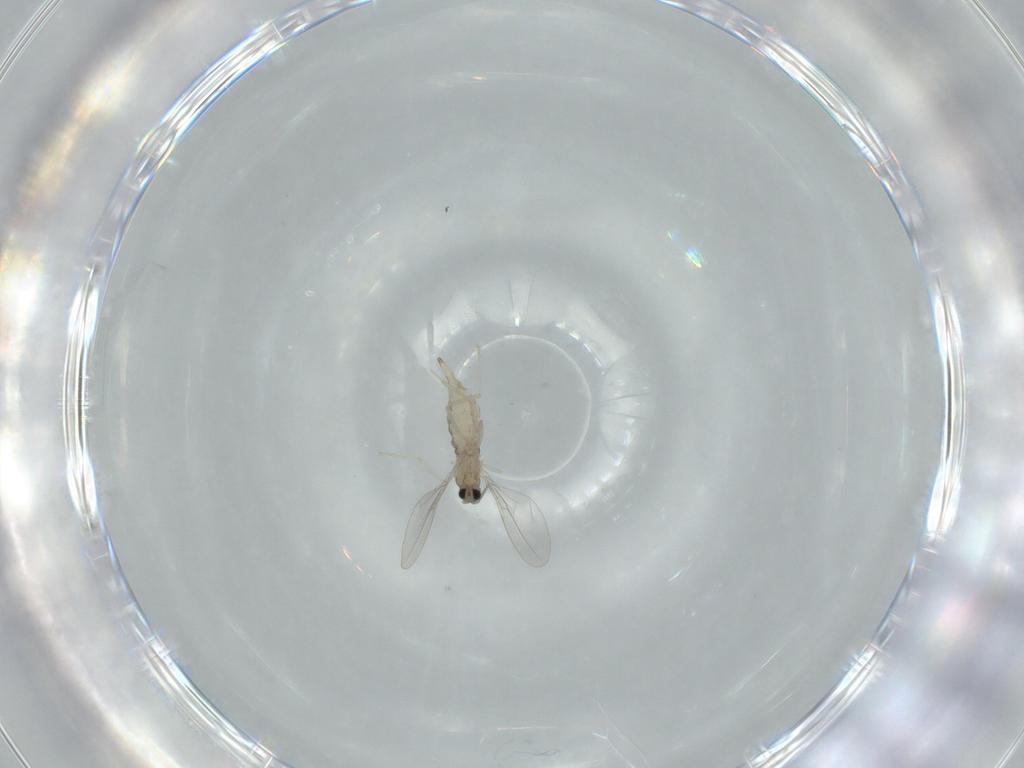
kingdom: Animalia
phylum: Arthropoda
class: Insecta
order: Diptera
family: Cecidomyiidae
